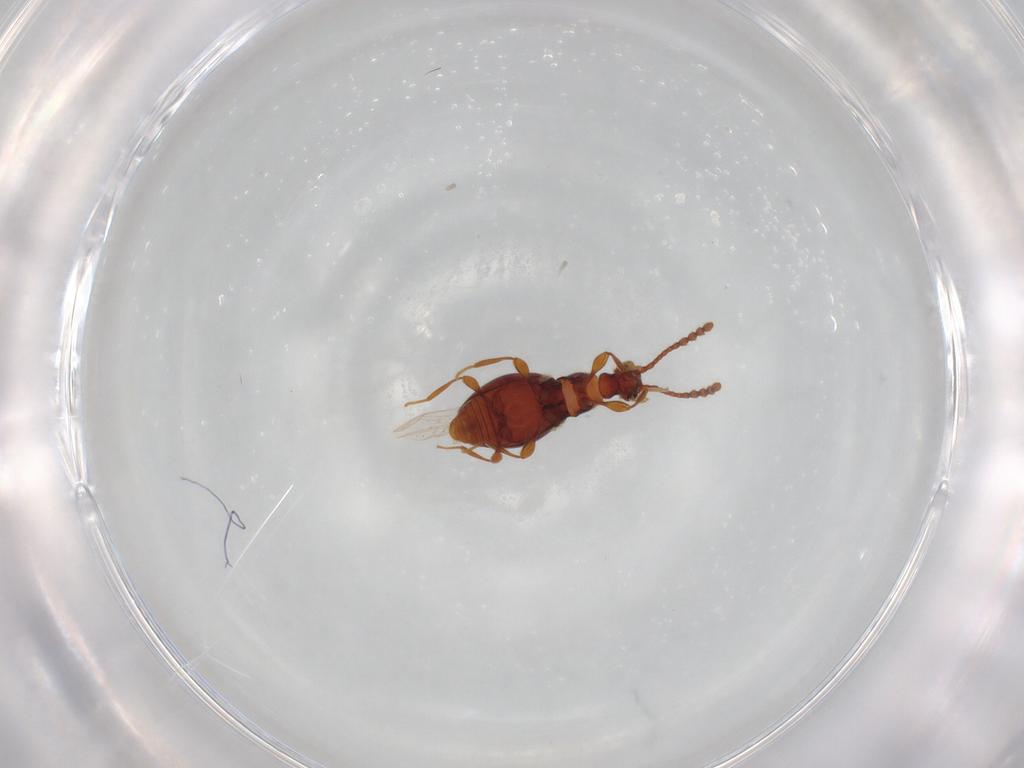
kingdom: Animalia
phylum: Arthropoda
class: Insecta
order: Coleoptera
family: Staphylinidae
